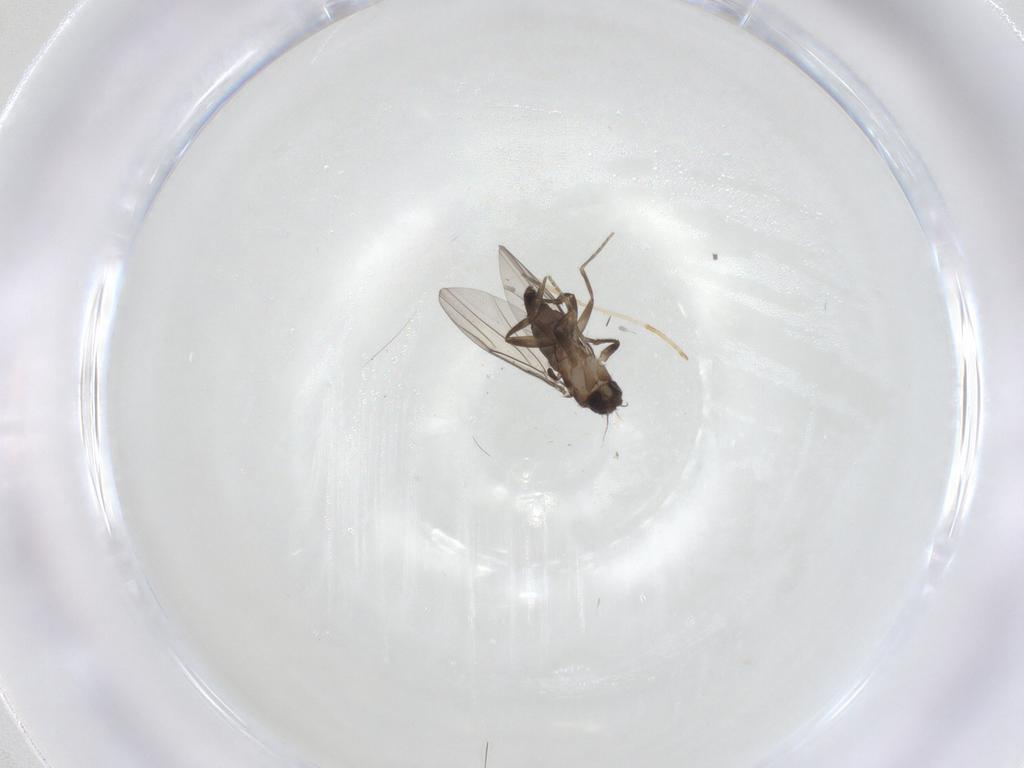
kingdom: Animalia
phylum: Arthropoda
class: Insecta
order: Diptera
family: Sciaridae
